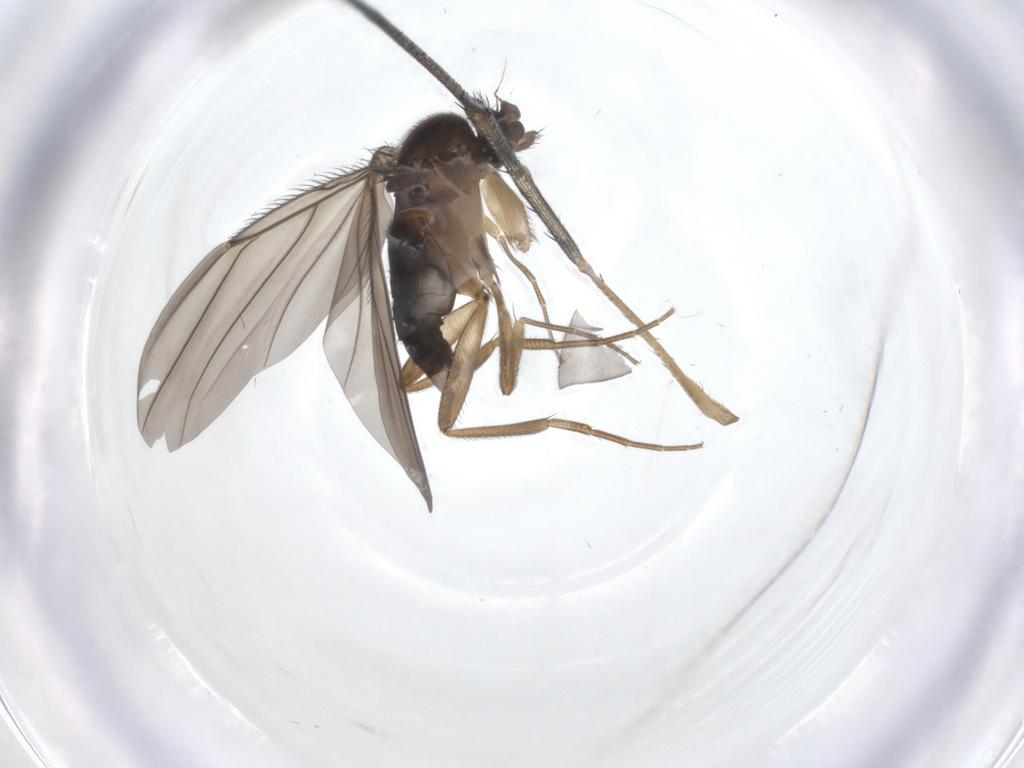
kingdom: Animalia
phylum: Arthropoda
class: Insecta
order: Diptera
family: Phoridae
